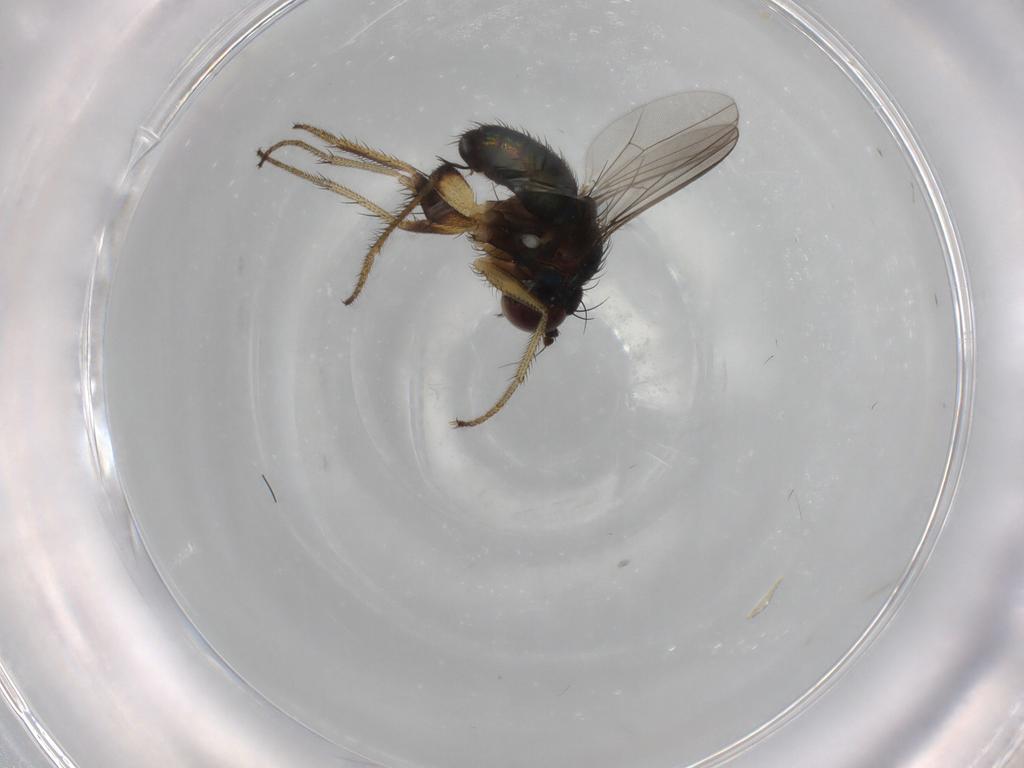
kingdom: Animalia
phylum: Arthropoda
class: Insecta
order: Diptera
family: Dolichopodidae
